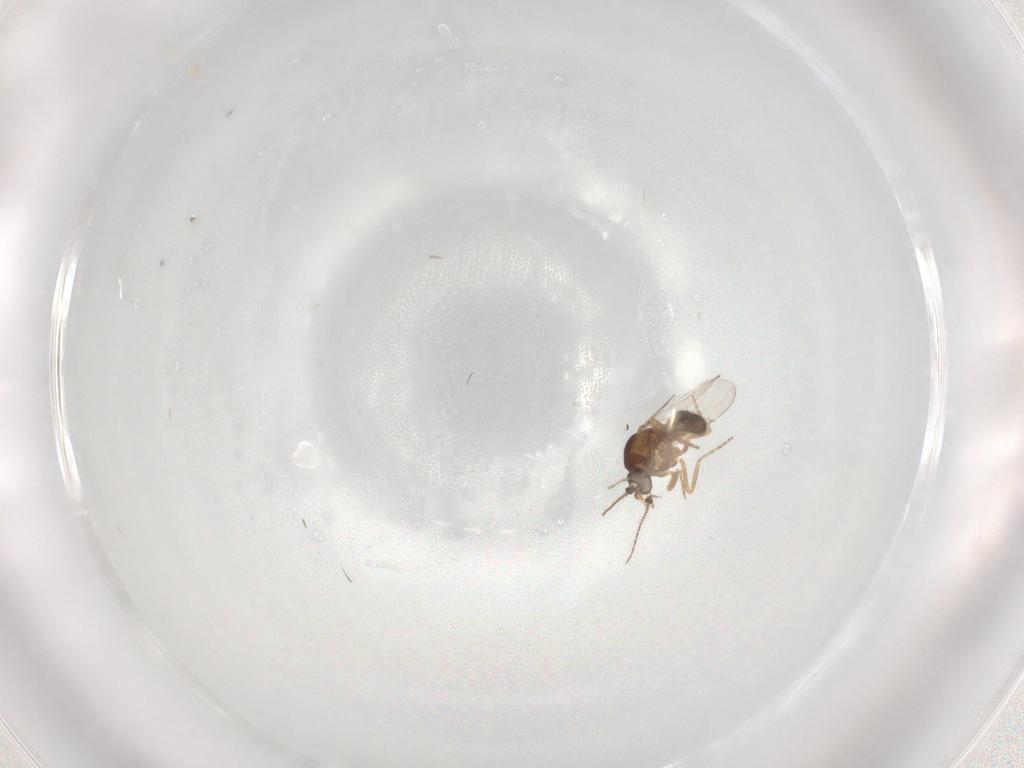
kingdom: Animalia
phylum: Arthropoda
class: Insecta
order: Diptera
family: Ceratopogonidae
